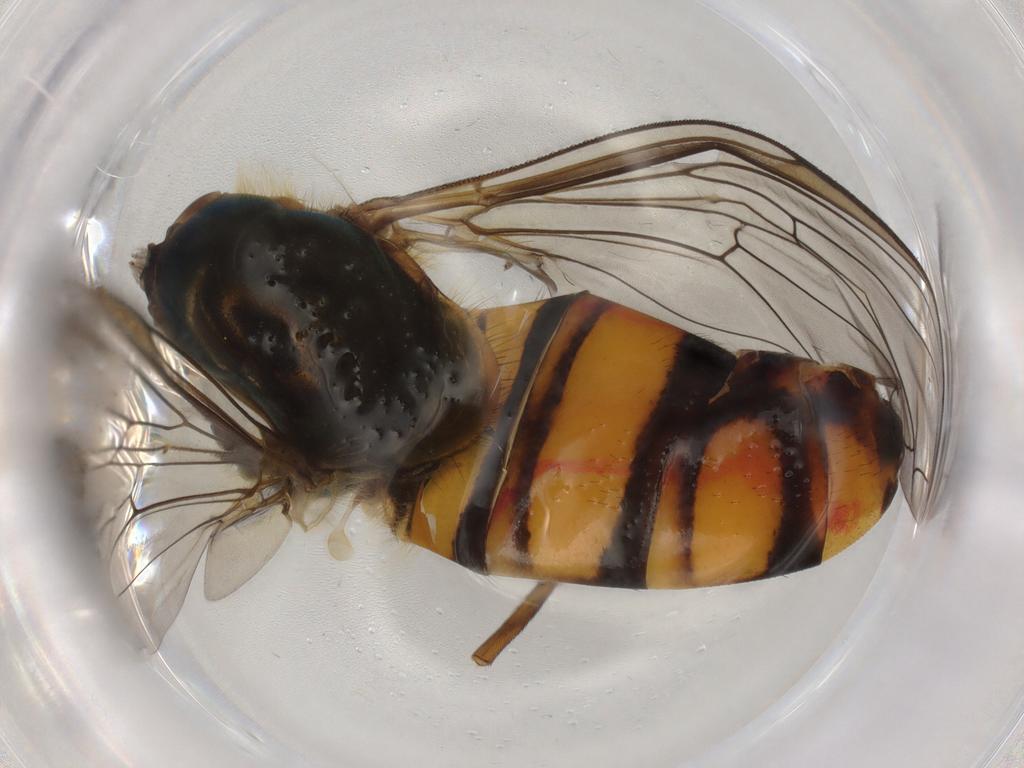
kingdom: Animalia
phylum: Arthropoda
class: Insecta
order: Diptera
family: Syrphidae
